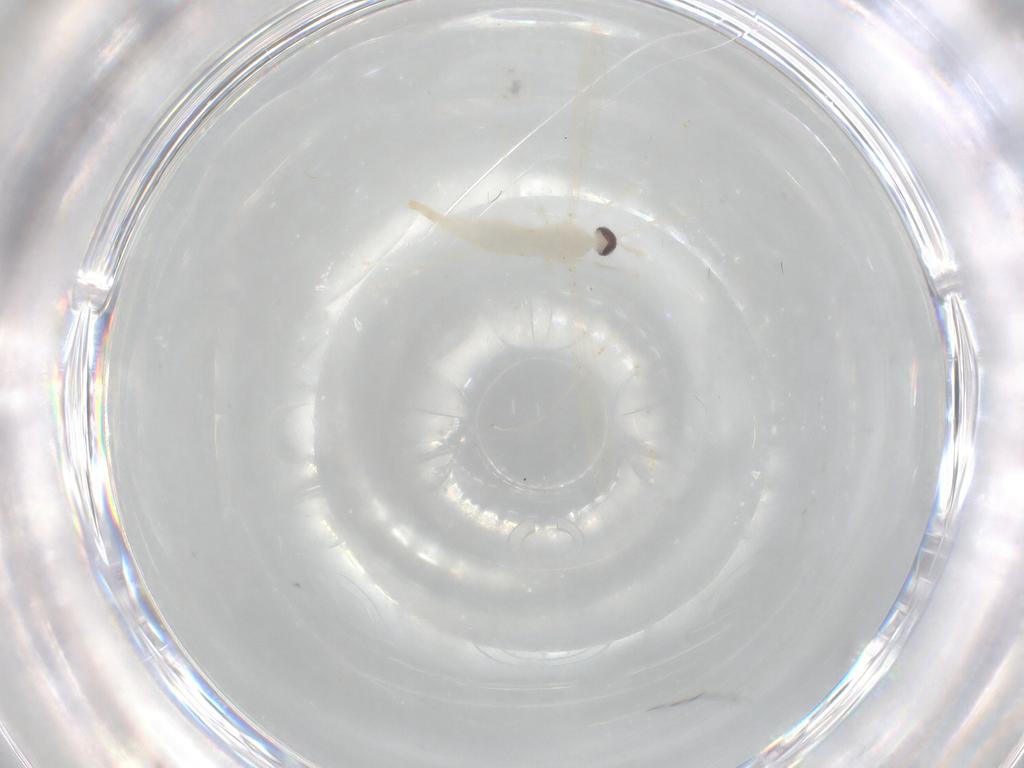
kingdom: Animalia
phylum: Arthropoda
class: Insecta
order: Diptera
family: Cecidomyiidae
